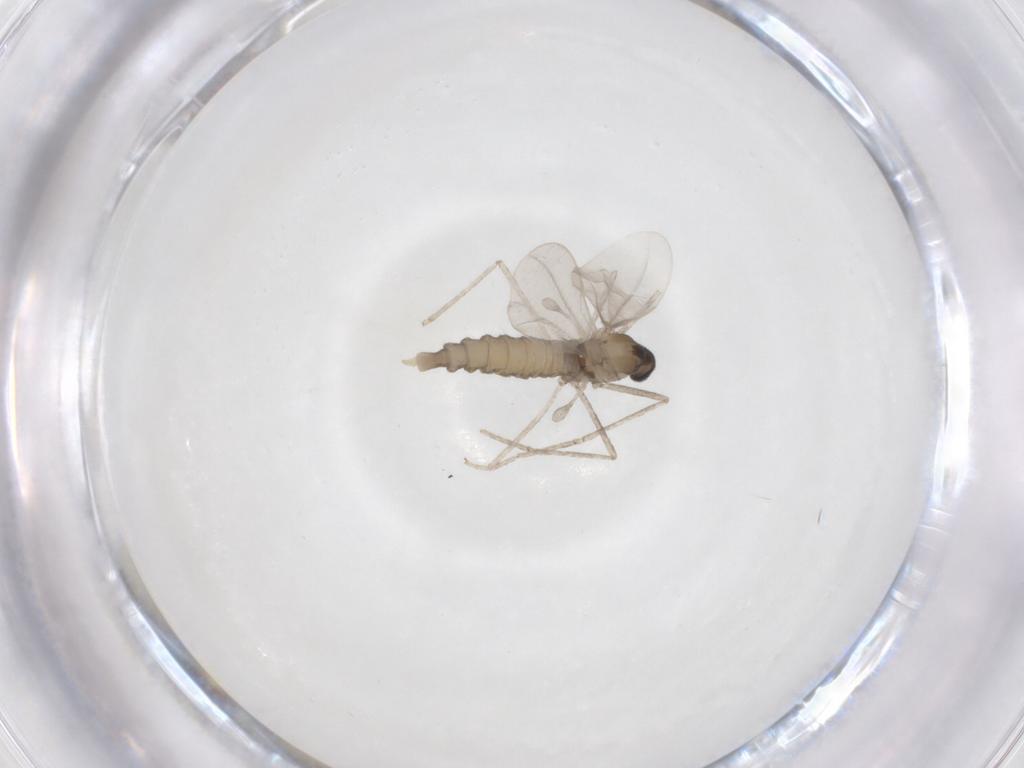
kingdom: Animalia
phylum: Arthropoda
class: Insecta
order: Diptera
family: Cecidomyiidae
